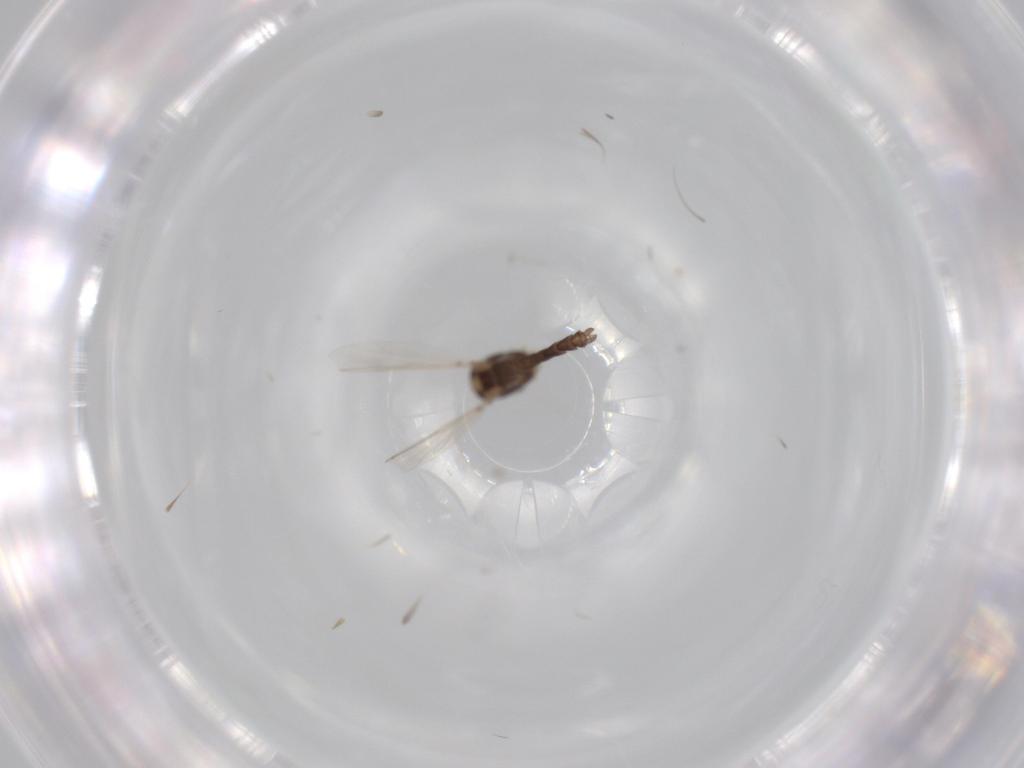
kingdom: Animalia
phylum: Arthropoda
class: Insecta
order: Diptera
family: Chironomidae
